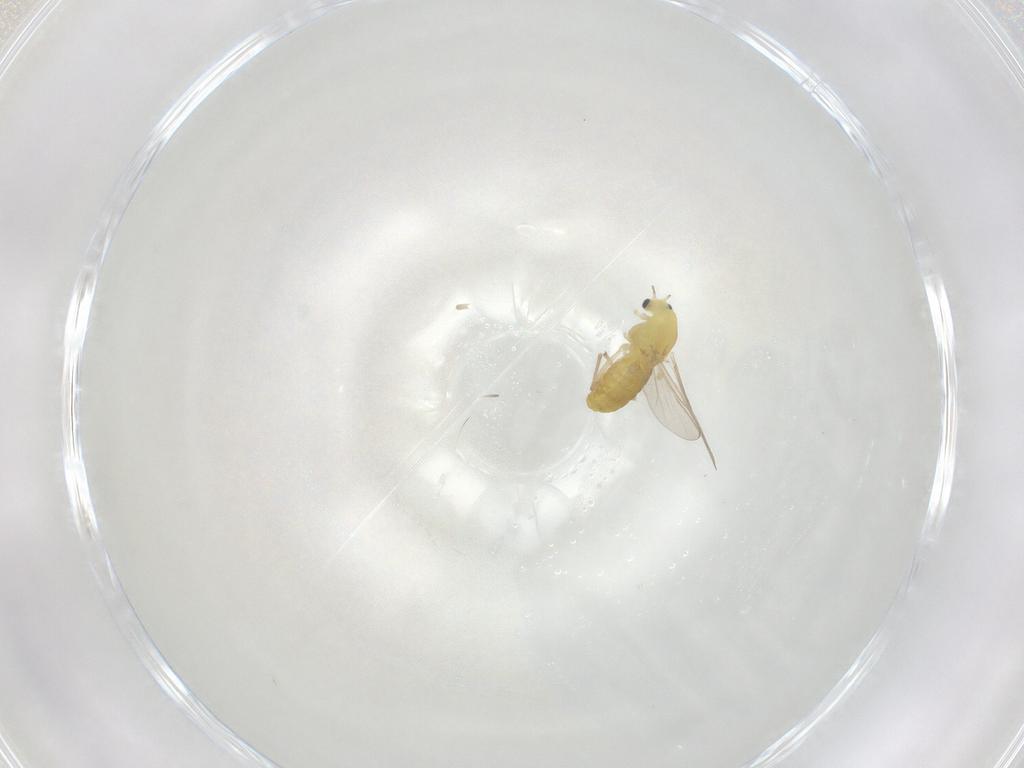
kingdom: Animalia
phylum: Arthropoda
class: Insecta
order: Diptera
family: Chironomidae
